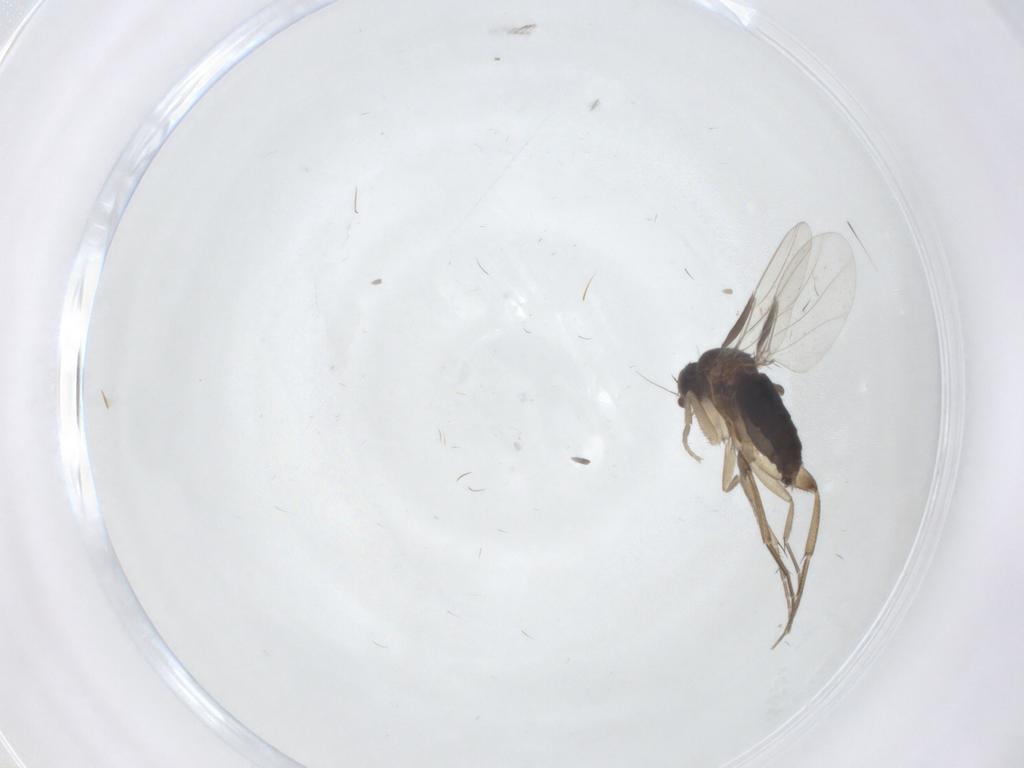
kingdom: Animalia
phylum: Arthropoda
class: Insecta
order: Diptera
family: Phoridae
